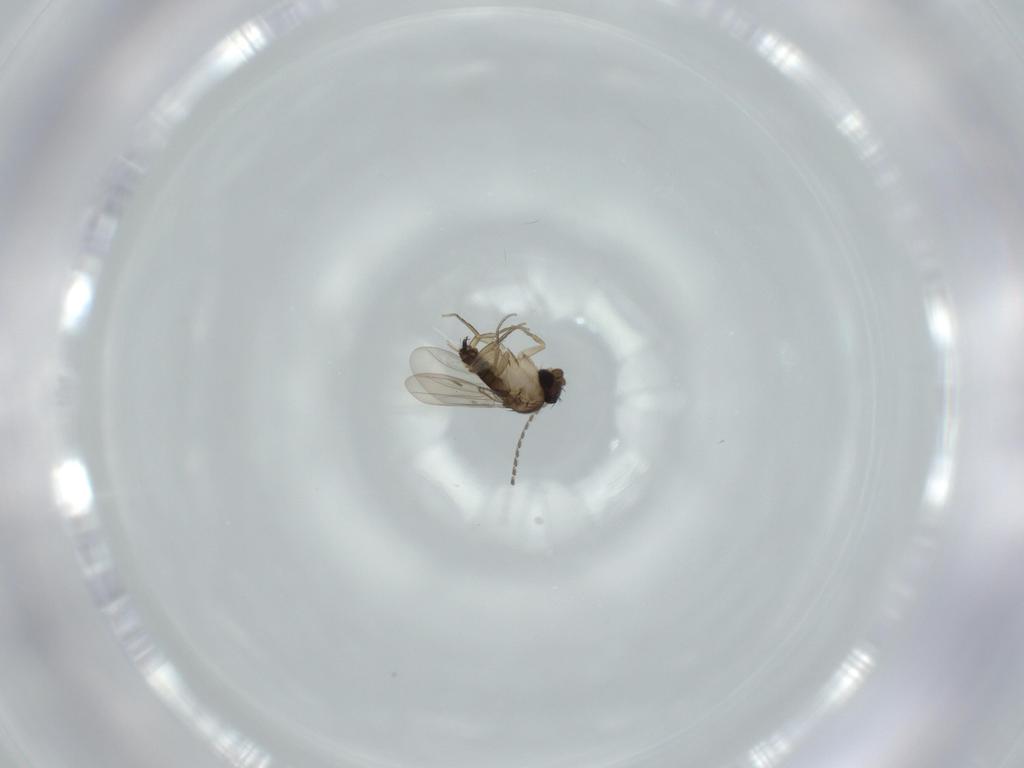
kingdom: Animalia
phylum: Arthropoda
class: Insecta
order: Diptera
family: Phoridae
